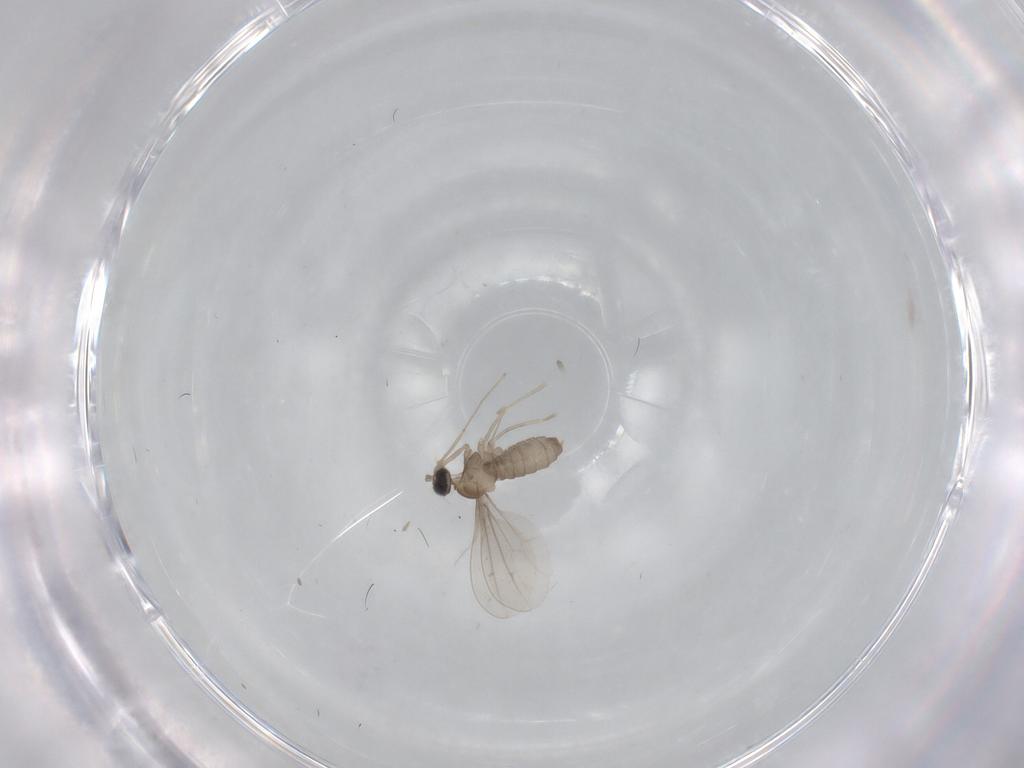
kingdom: Animalia
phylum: Arthropoda
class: Insecta
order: Diptera
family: Cecidomyiidae
